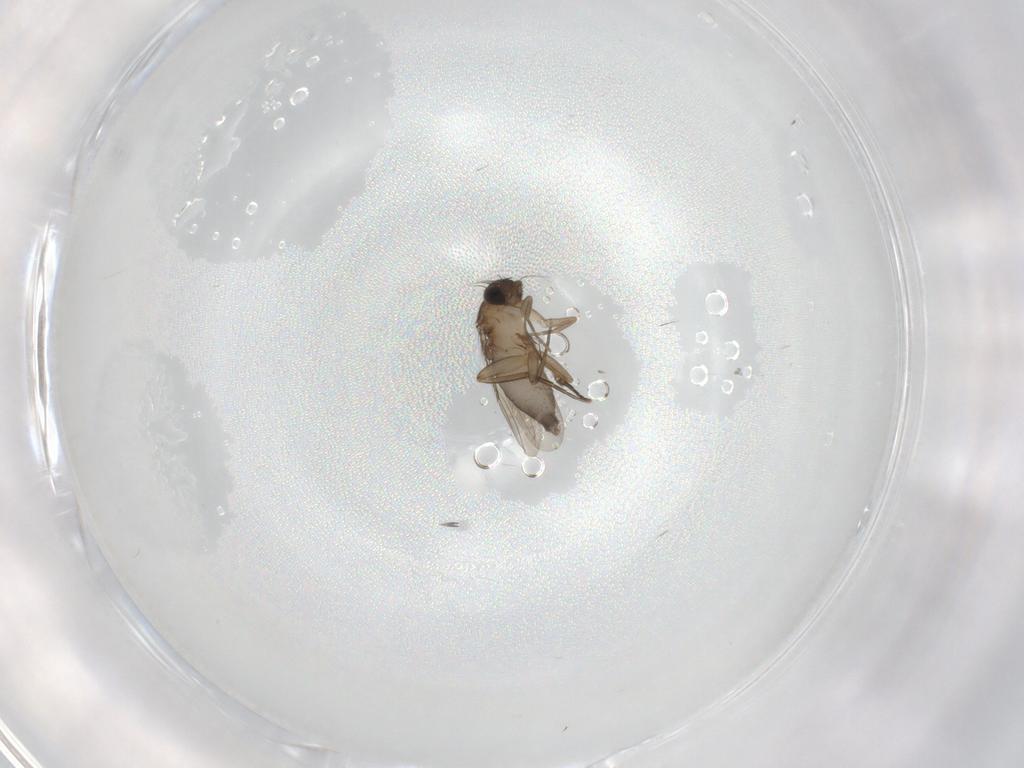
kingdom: Animalia
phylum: Arthropoda
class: Insecta
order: Diptera
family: Phoridae
